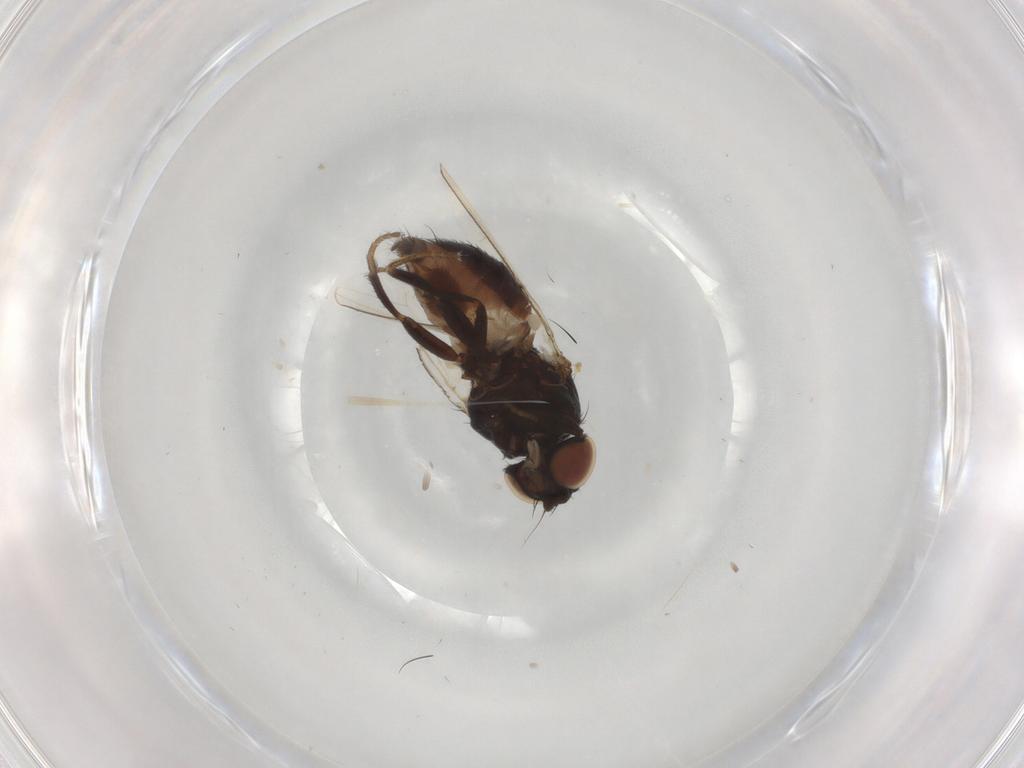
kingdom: Animalia
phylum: Arthropoda
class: Insecta
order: Diptera
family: Milichiidae
